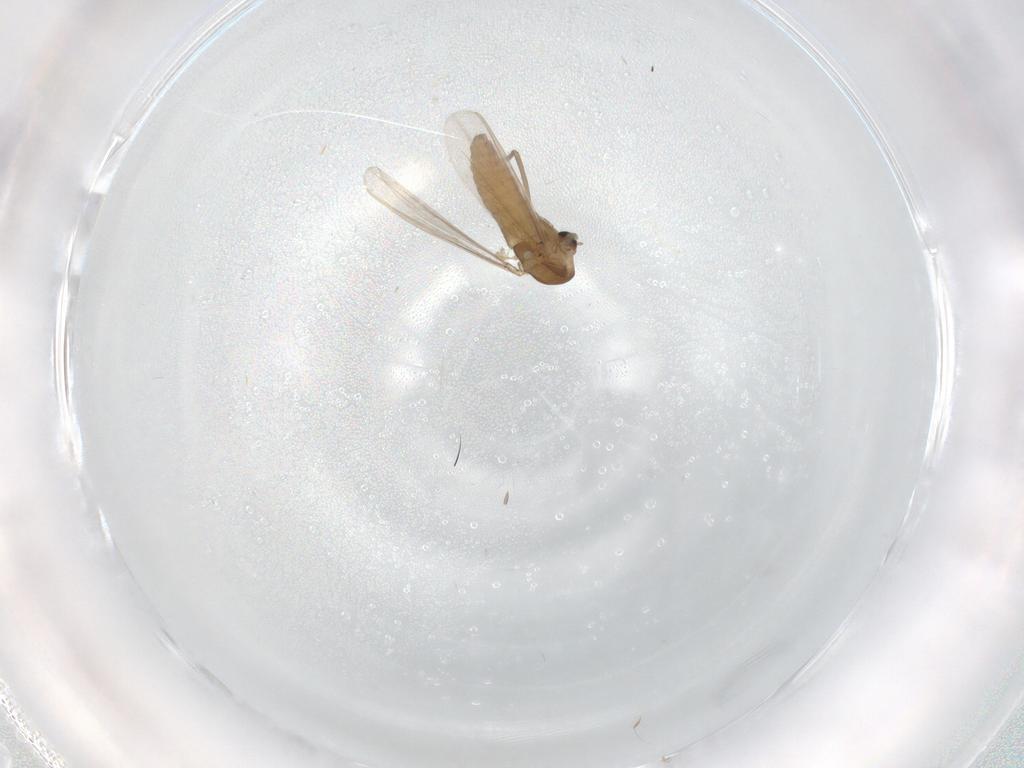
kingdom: Animalia
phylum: Arthropoda
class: Insecta
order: Diptera
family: Chironomidae
